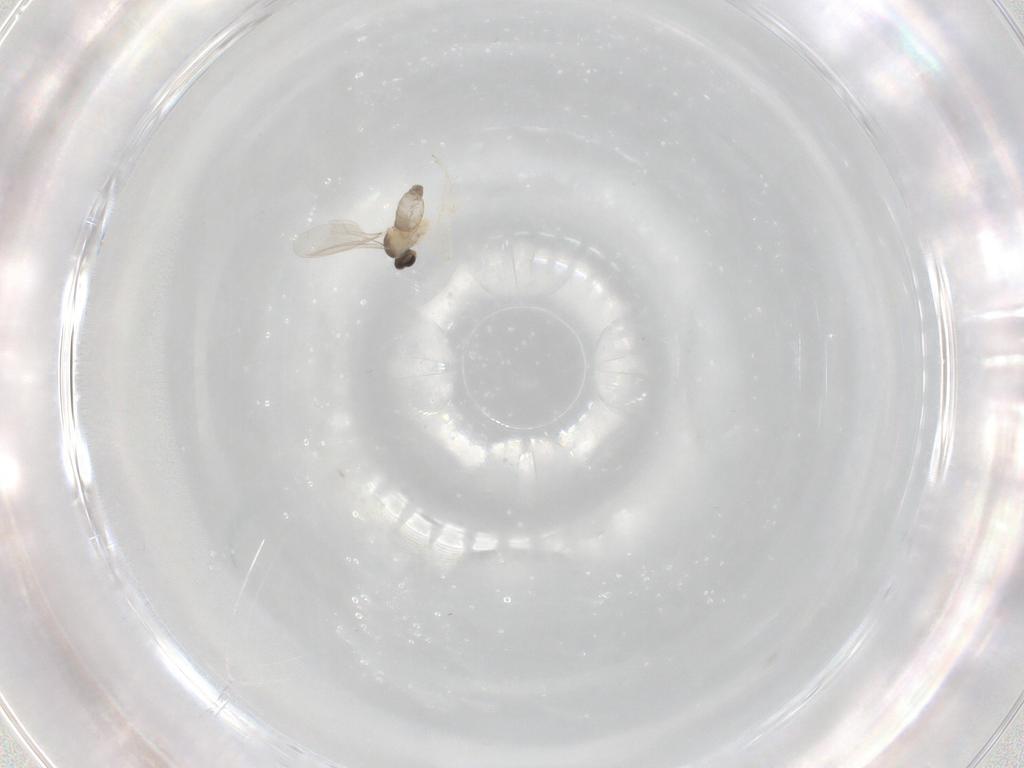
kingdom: Animalia
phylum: Arthropoda
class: Insecta
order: Diptera
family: Cecidomyiidae
